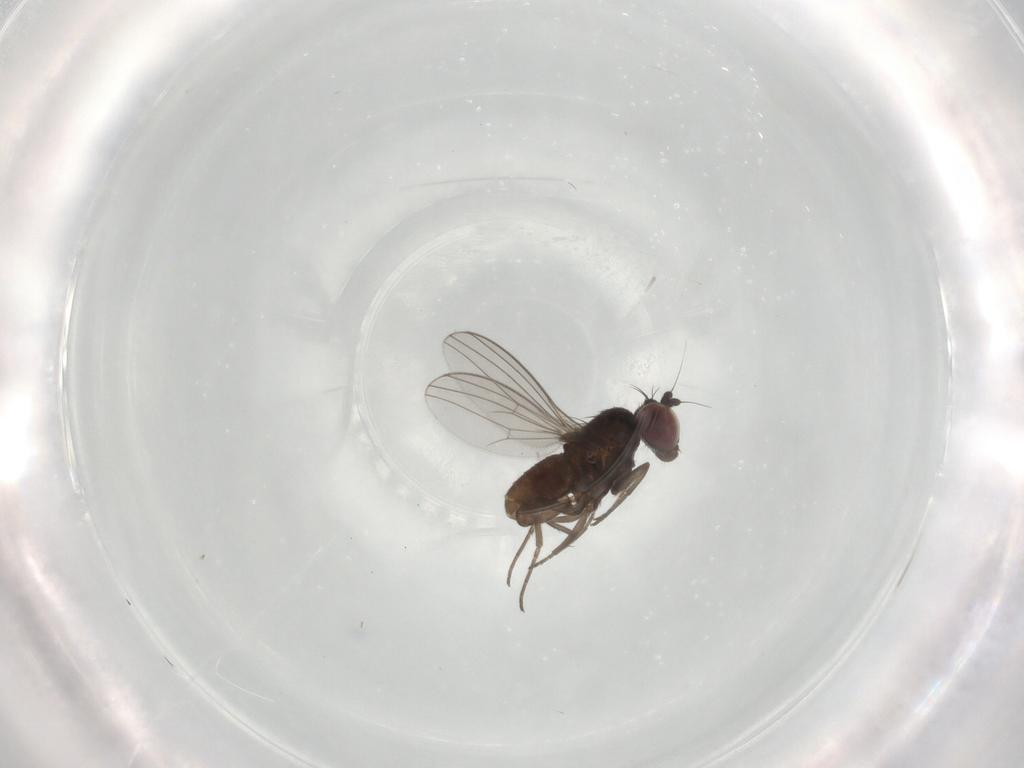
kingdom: Animalia
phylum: Arthropoda
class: Insecta
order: Diptera
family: Dolichopodidae
